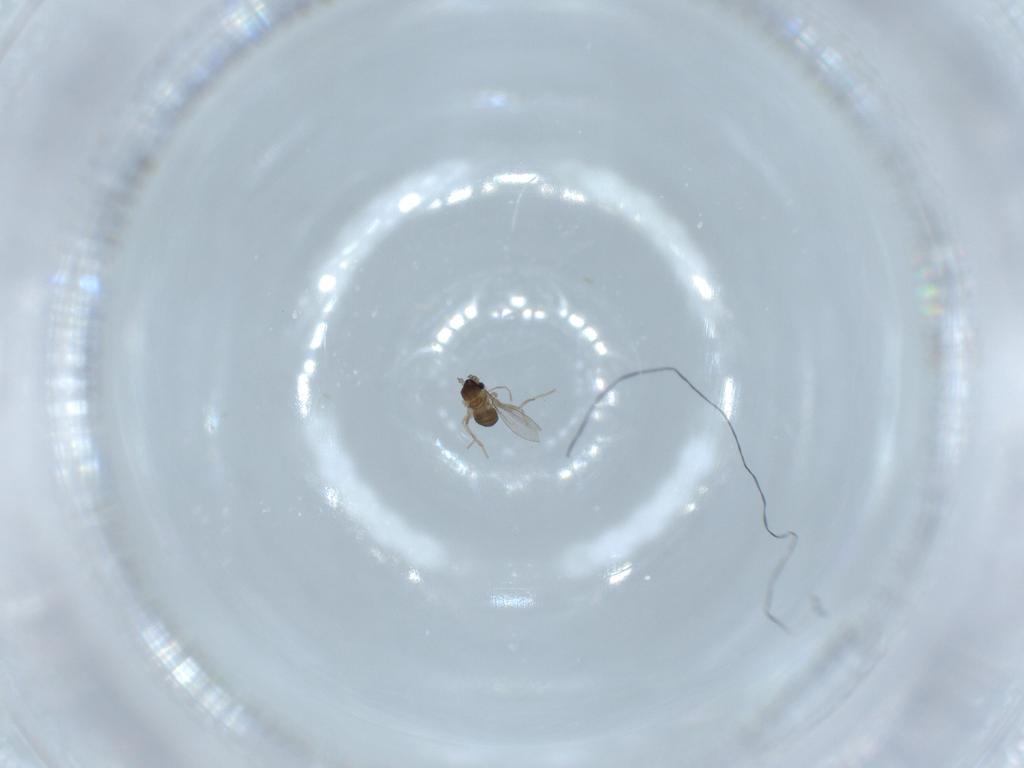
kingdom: Animalia
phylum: Arthropoda
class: Insecta
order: Diptera
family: Cecidomyiidae
